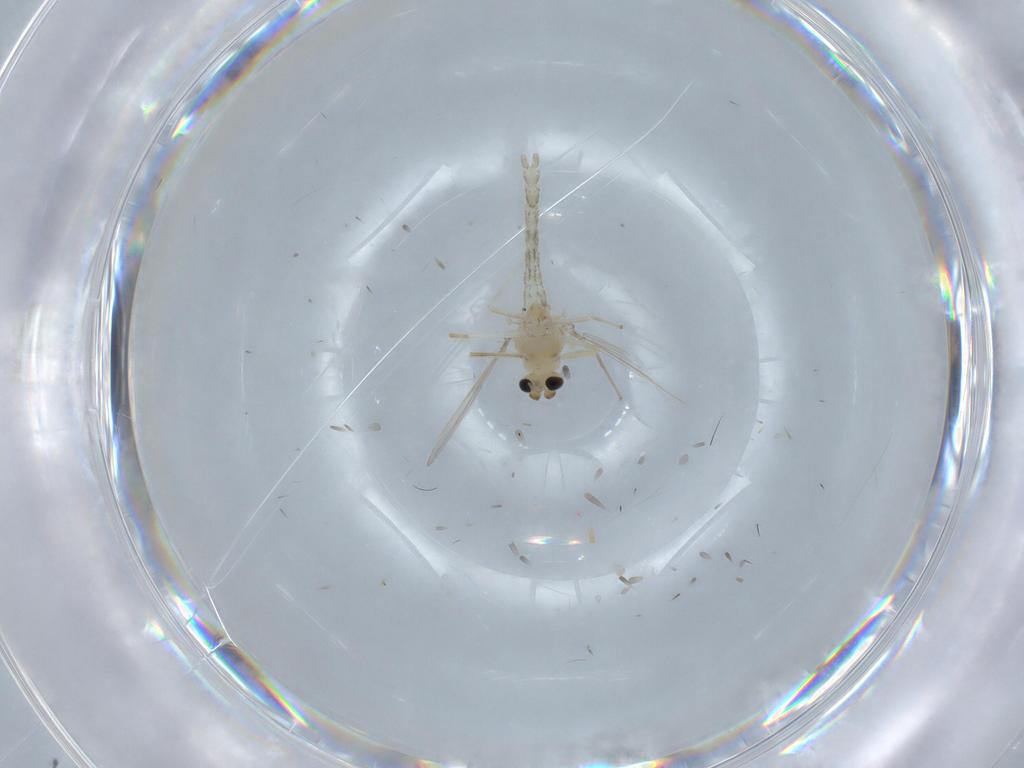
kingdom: Animalia
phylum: Arthropoda
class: Insecta
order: Diptera
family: Chironomidae
